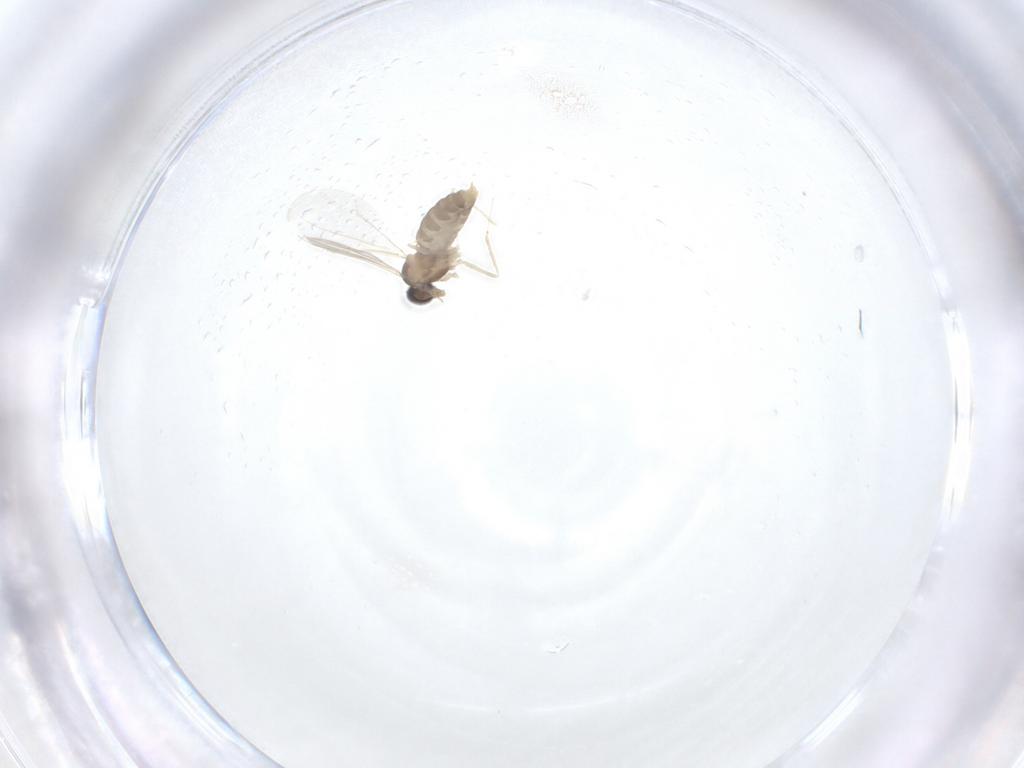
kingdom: Animalia
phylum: Arthropoda
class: Insecta
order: Diptera
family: Cecidomyiidae
